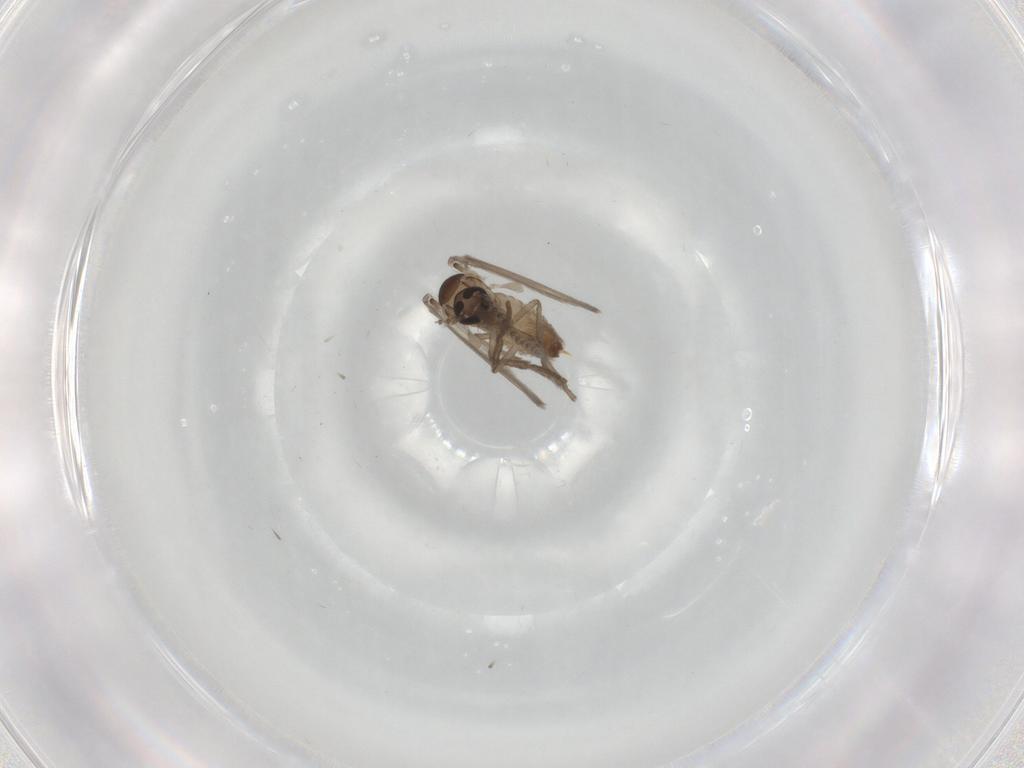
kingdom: Animalia
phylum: Arthropoda
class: Insecta
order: Diptera
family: Psychodidae
